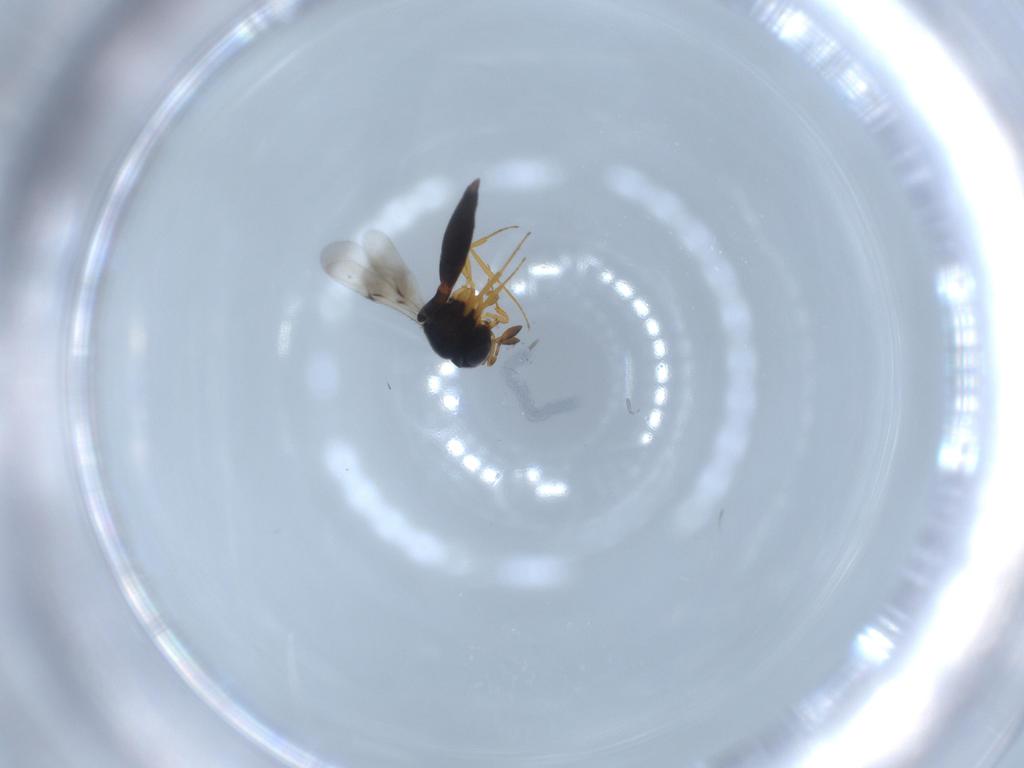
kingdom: Animalia
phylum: Arthropoda
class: Insecta
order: Hymenoptera
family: Scelionidae
